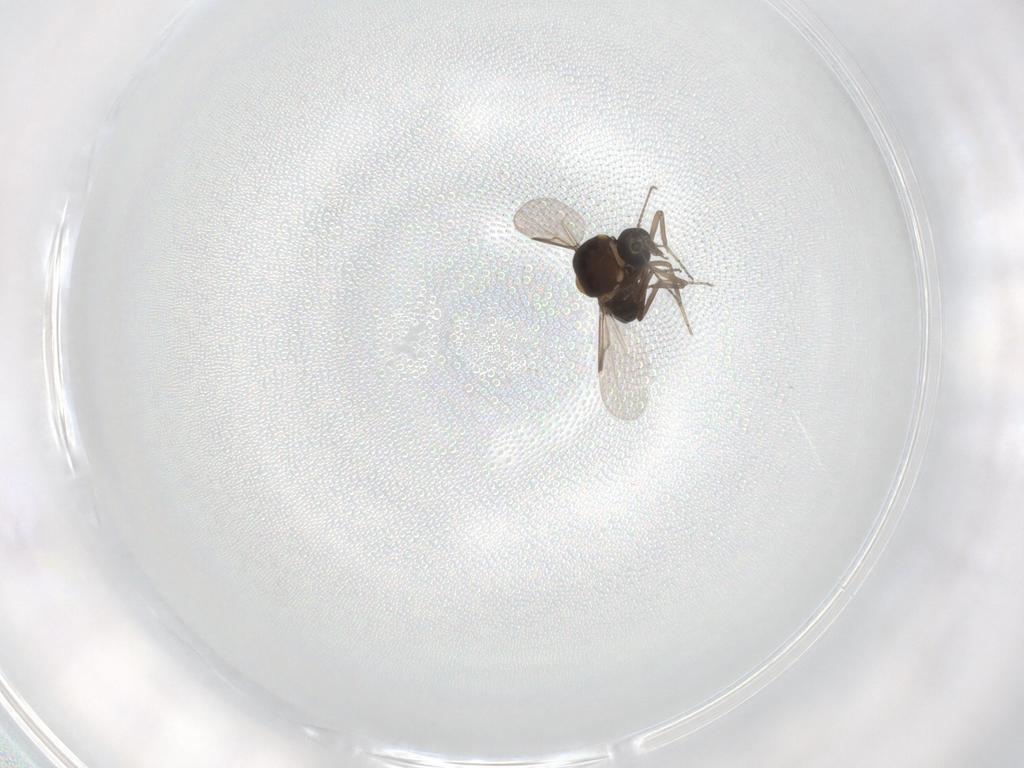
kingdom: Animalia
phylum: Arthropoda
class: Insecta
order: Diptera
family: Ceratopogonidae
